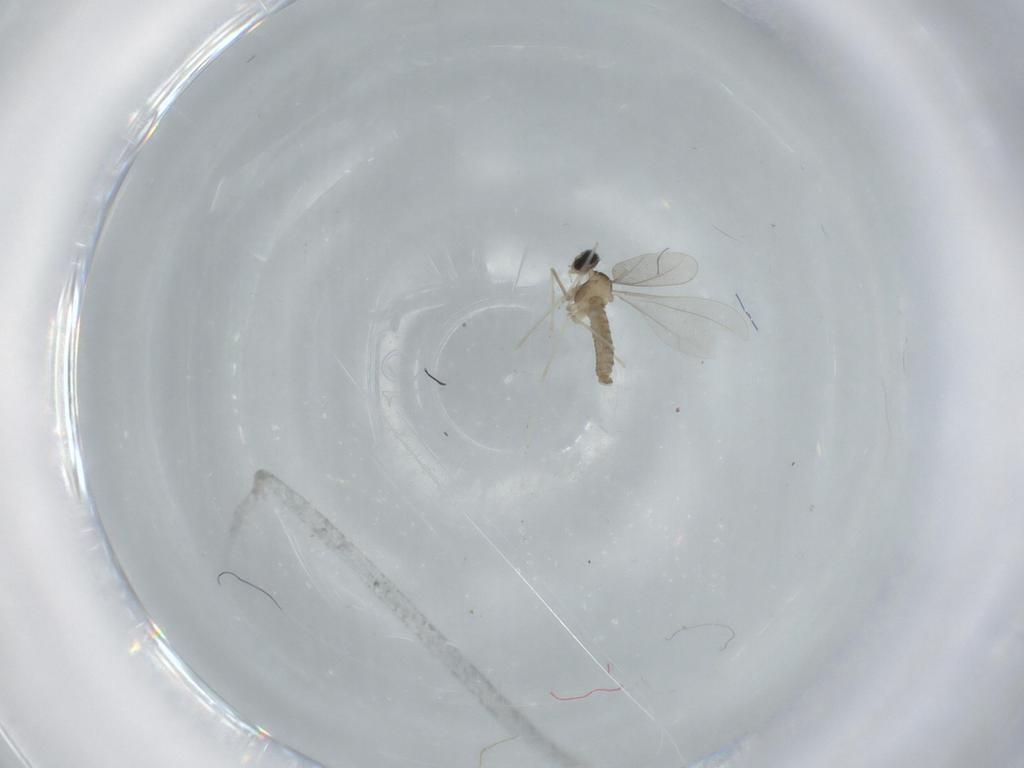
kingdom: Animalia
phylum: Arthropoda
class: Insecta
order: Diptera
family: Cecidomyiidae
